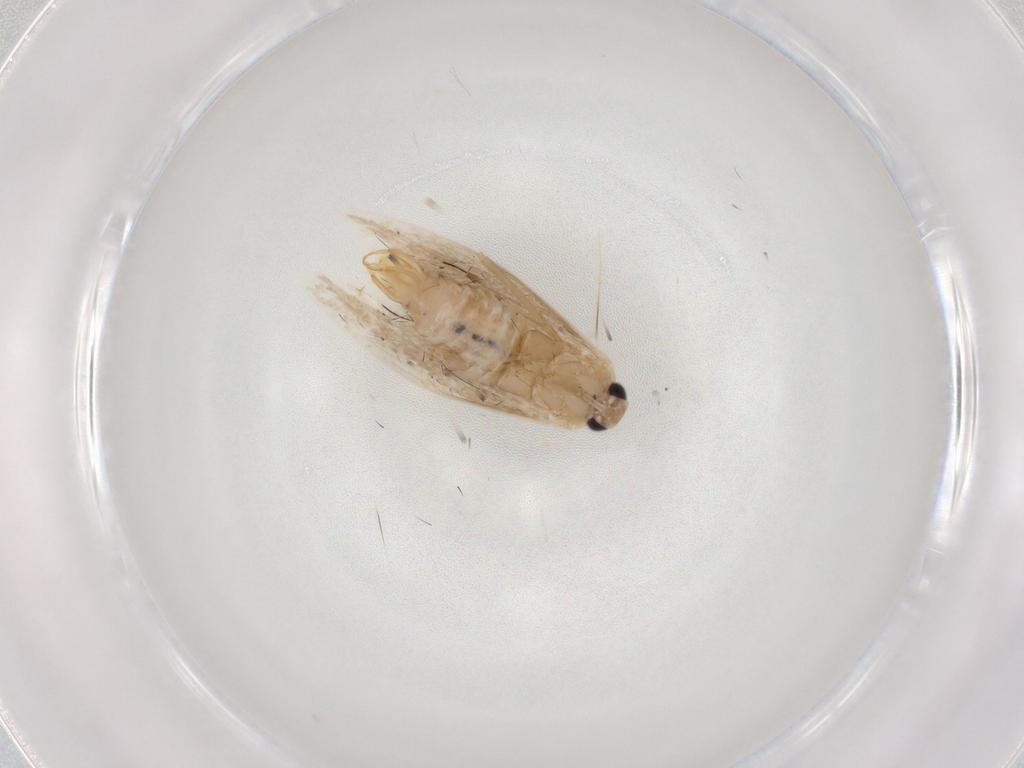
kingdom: Animalia
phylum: Arthropoda
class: Insecta
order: Lepidoptera
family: Bucculatricidae
